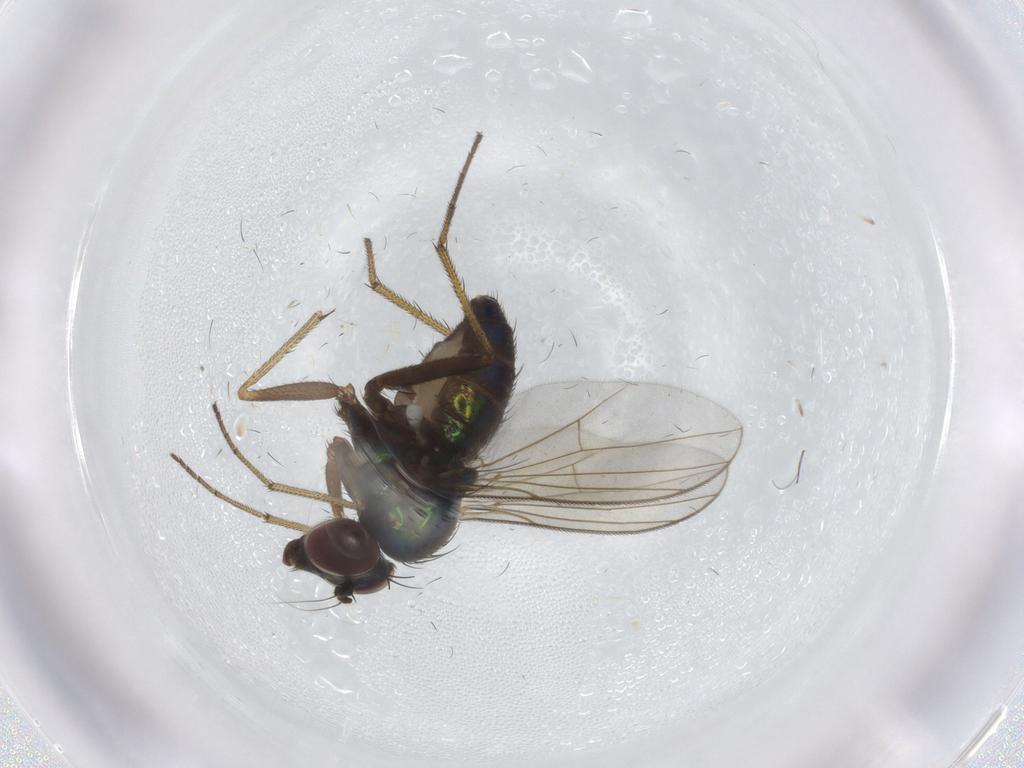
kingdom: Animalia
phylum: Arthropoda
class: Insecta
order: Diptera
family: Dolichopodidae
